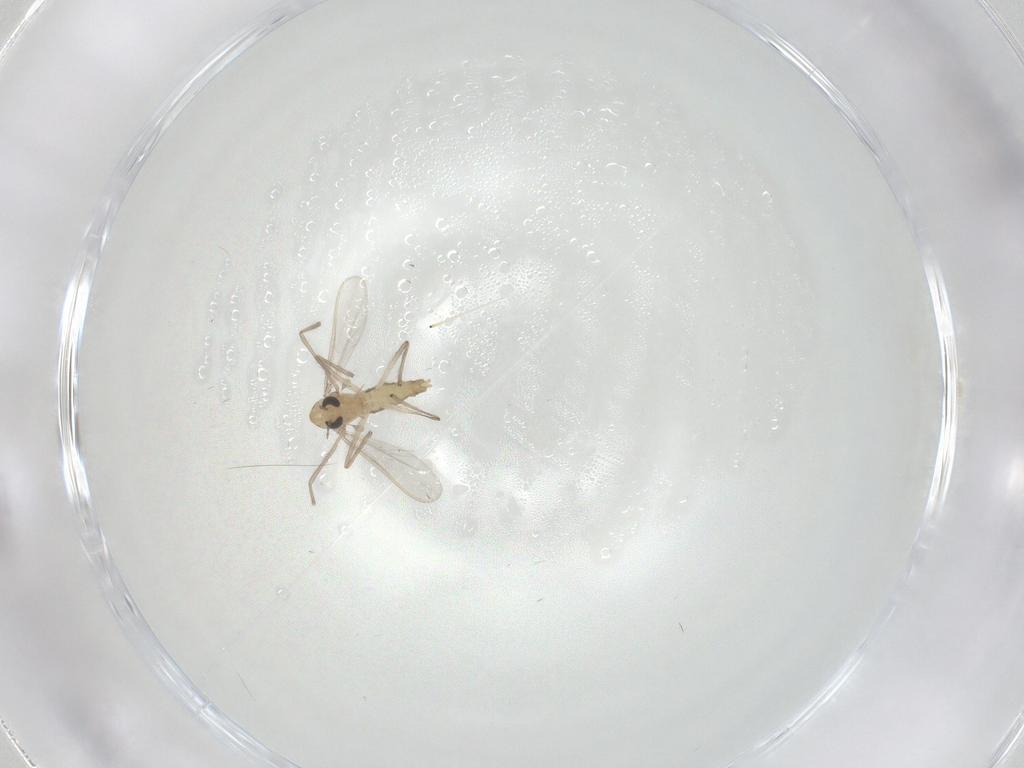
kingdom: Animalia
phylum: Arthropoda
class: Insecta
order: Diptera
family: Chironomidae
